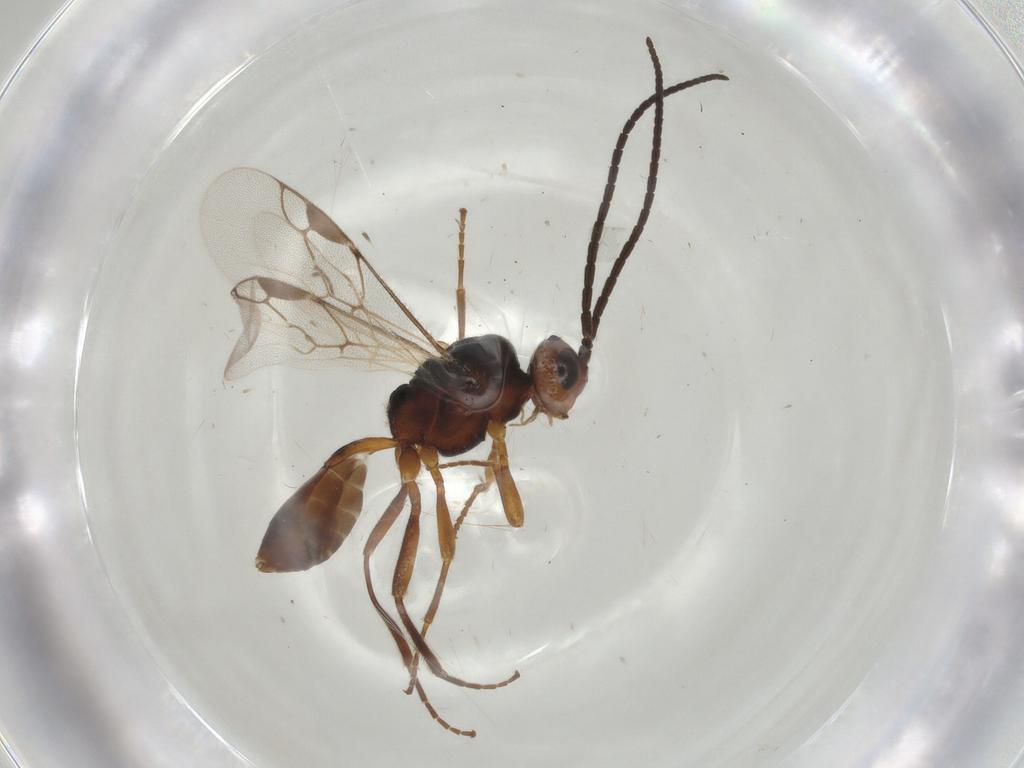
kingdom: Animalia
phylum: Arthropoda
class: Insecta
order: Hymenoptera
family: Braconidae
